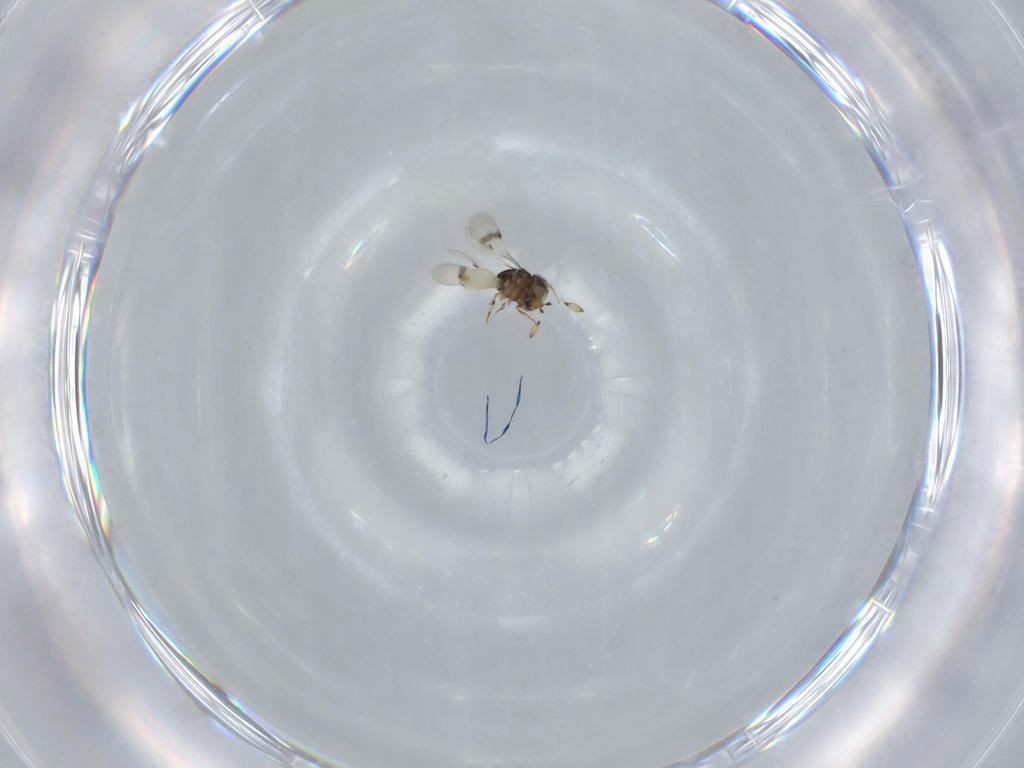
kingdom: Animalia
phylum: Arthropoda
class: Insecta
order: Hymenoptera
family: Scelionidae
